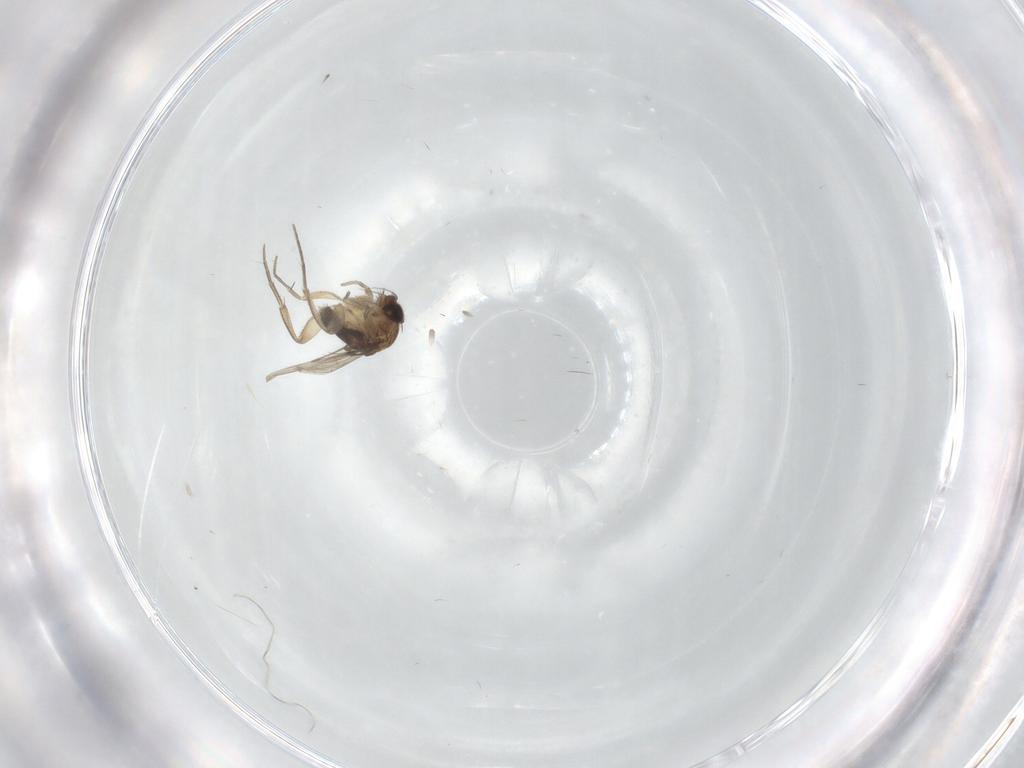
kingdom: Animalia
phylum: Arthropoda
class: Insecta
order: Diptera
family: Phoridae
